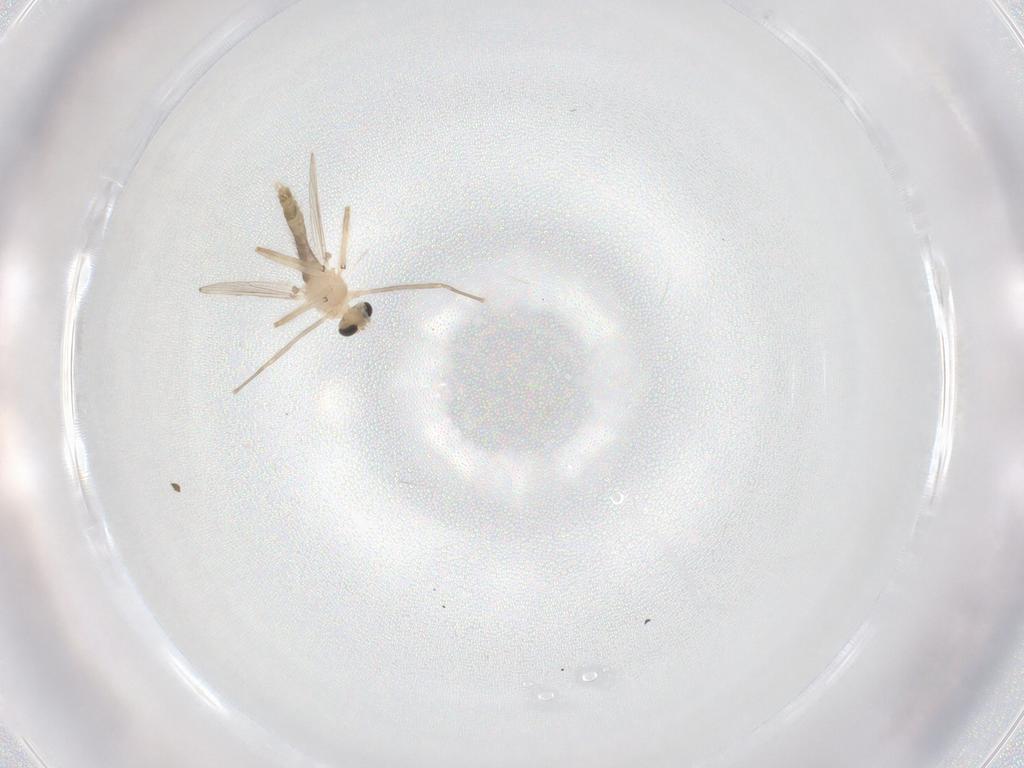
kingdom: Animalia
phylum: Arthropoda
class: Insecta
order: Diptera
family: Chironomidae
